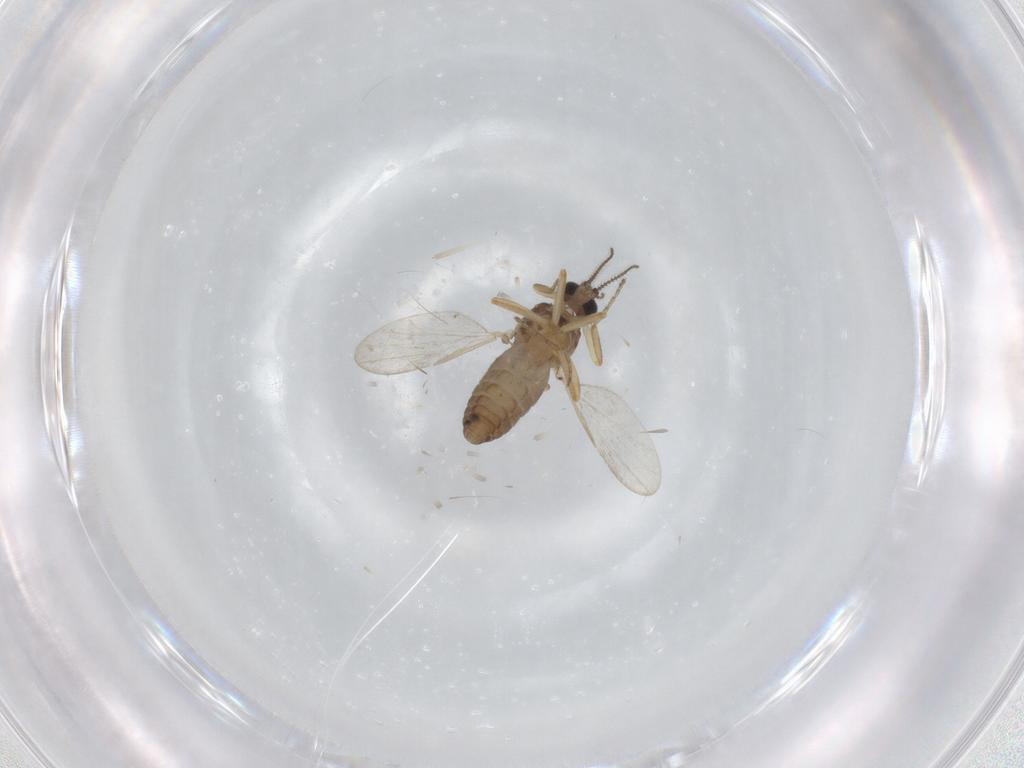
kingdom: Animalia
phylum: Arthropoda
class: Insecta
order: Diptera
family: Ceratopogonidae
